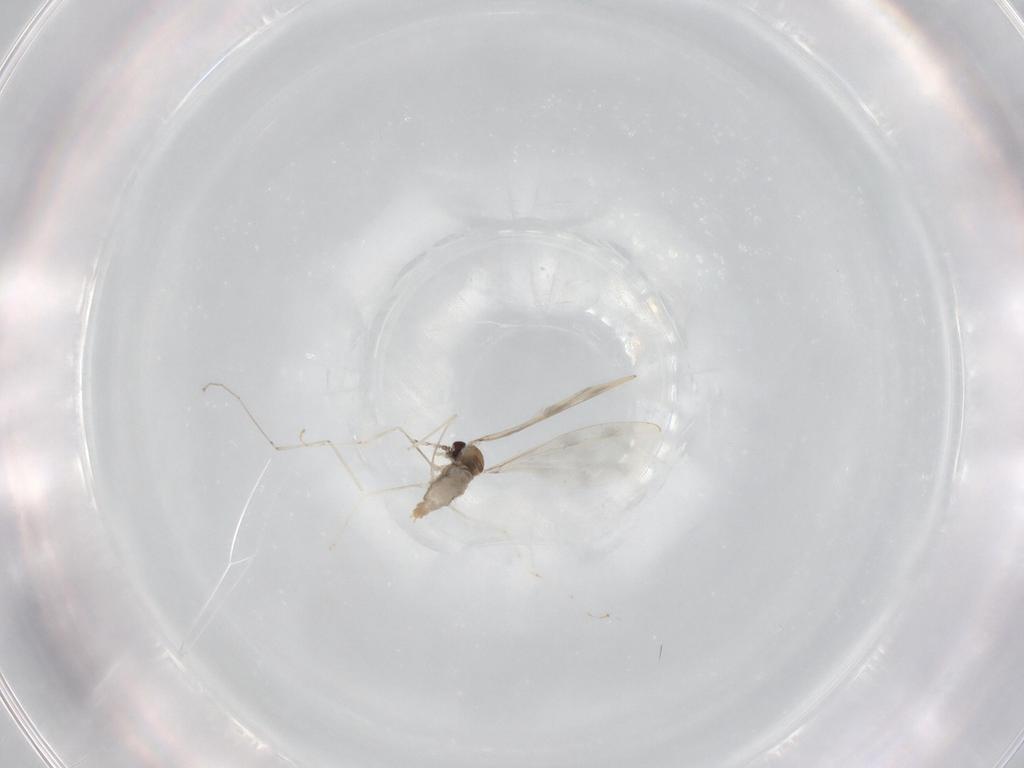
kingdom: Animalia
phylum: Arthropoda
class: Insecta
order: Diptera
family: Cecidomyiidae
